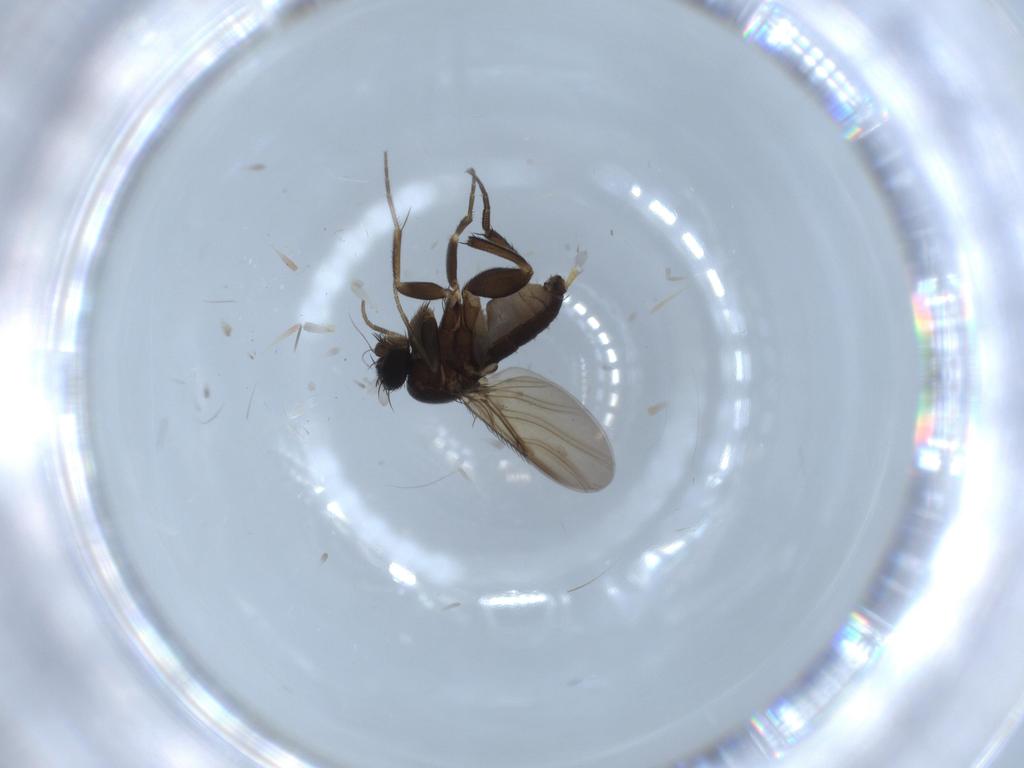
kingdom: Animalia
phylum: Arthropoda
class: Insecta
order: Diptera
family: Phoridae
